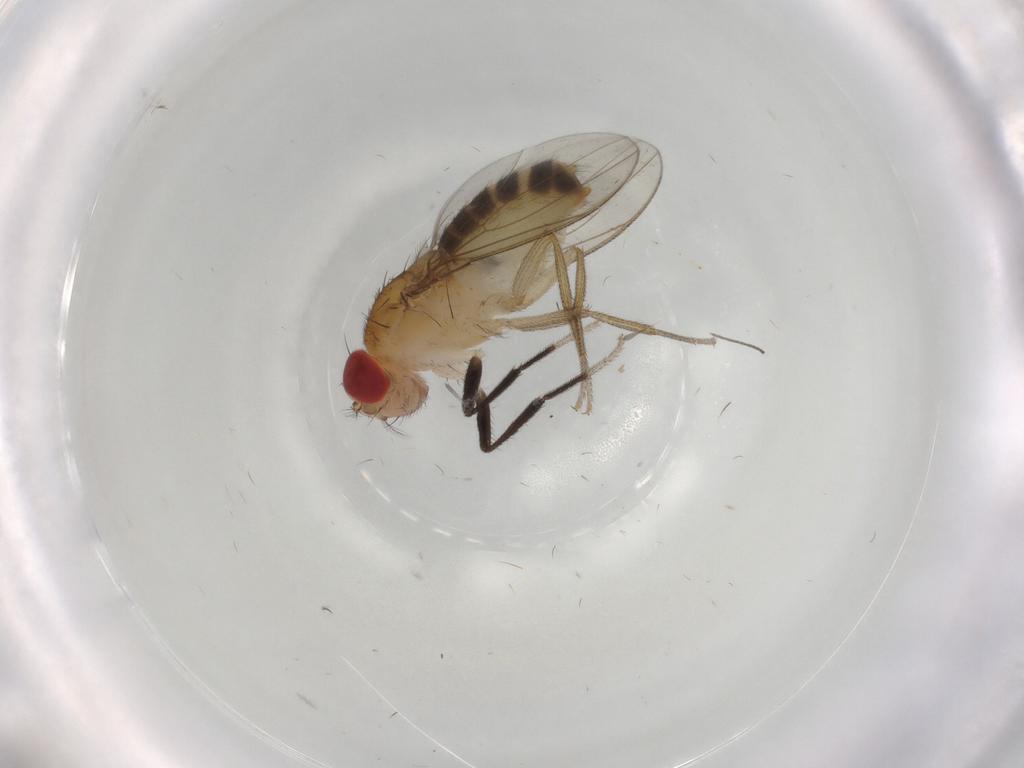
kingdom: Animalia
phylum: Arthropoda
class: Insecta
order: Diptera
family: Drosophilidae
